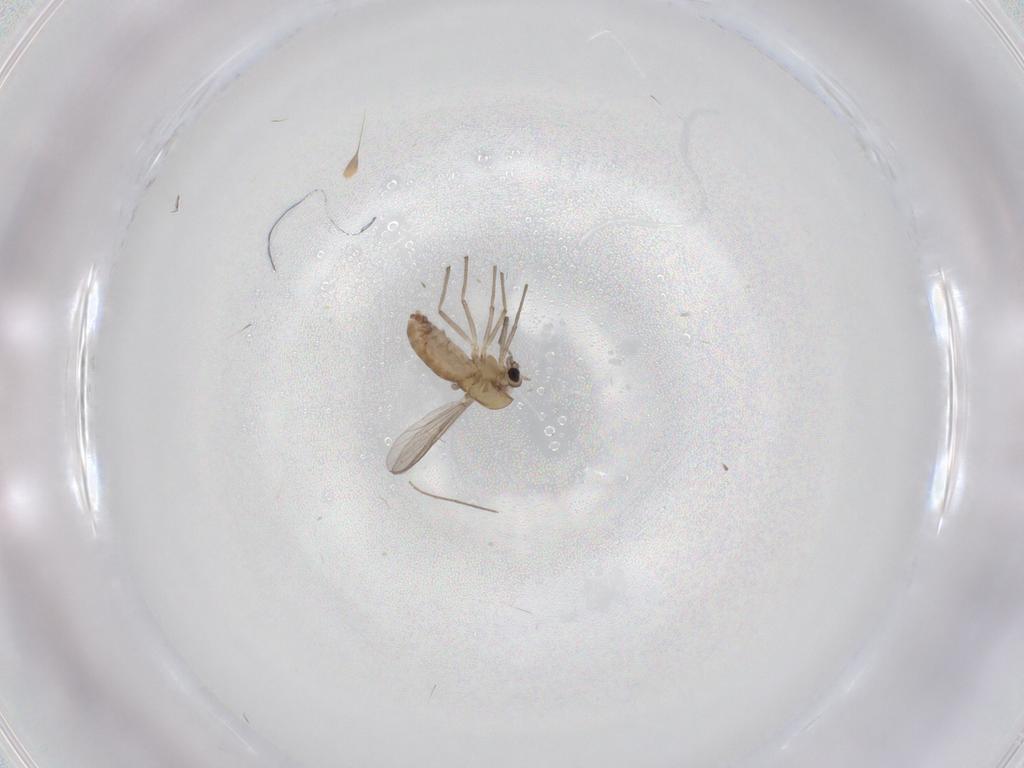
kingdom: Animalia
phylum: Arthropoda
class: Insecta
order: Diptera
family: Chironomidae
